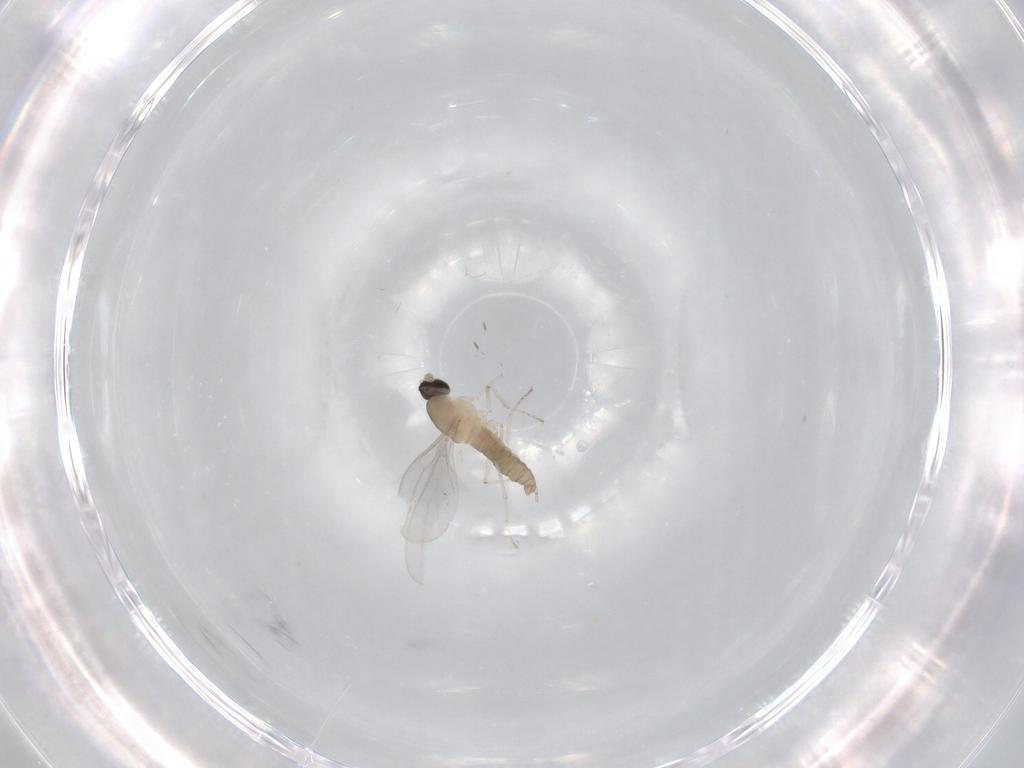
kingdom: Animalia
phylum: Arthropoda
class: Insecta
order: Diptera
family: Cecidomyiidae
